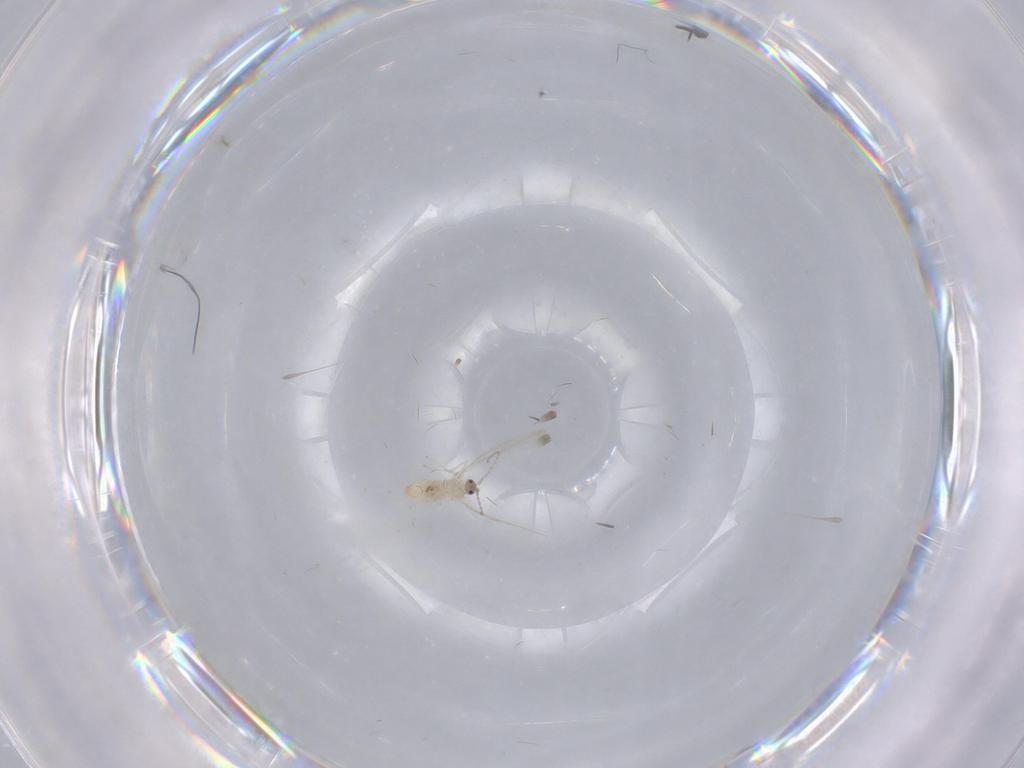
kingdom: Animalia
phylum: Arthropoda
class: Insecta
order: Diptera
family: Cecidomyiidae
